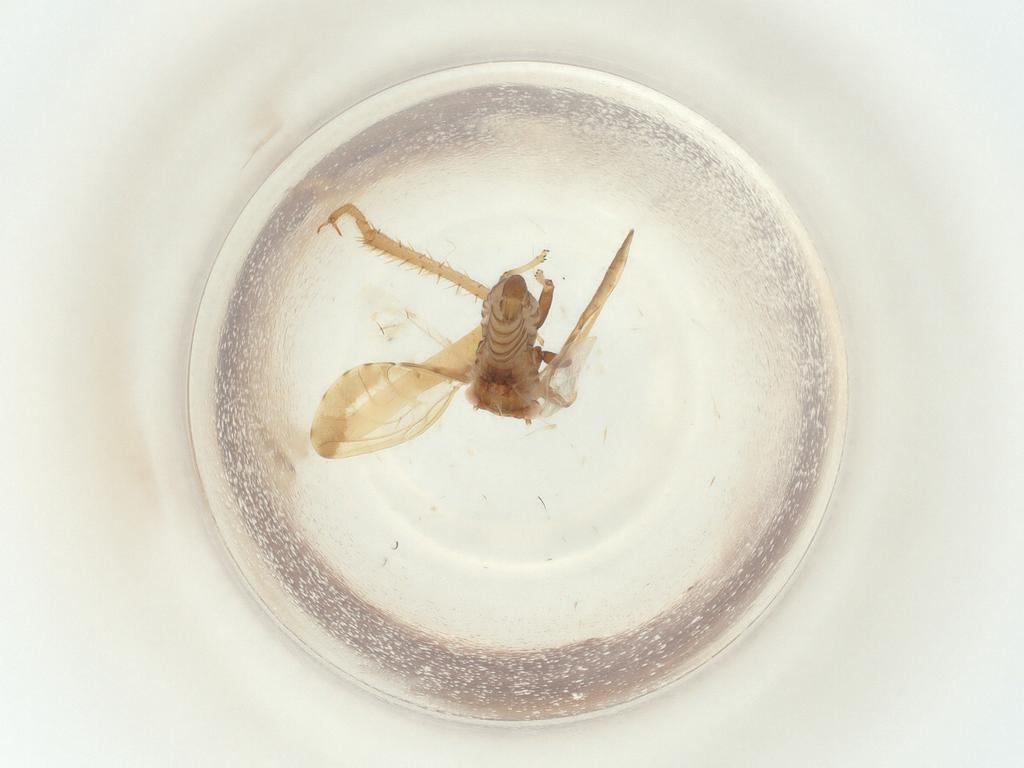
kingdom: Animalia
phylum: Arthropoda
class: Insecta
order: Hemiptera
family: Miridae
